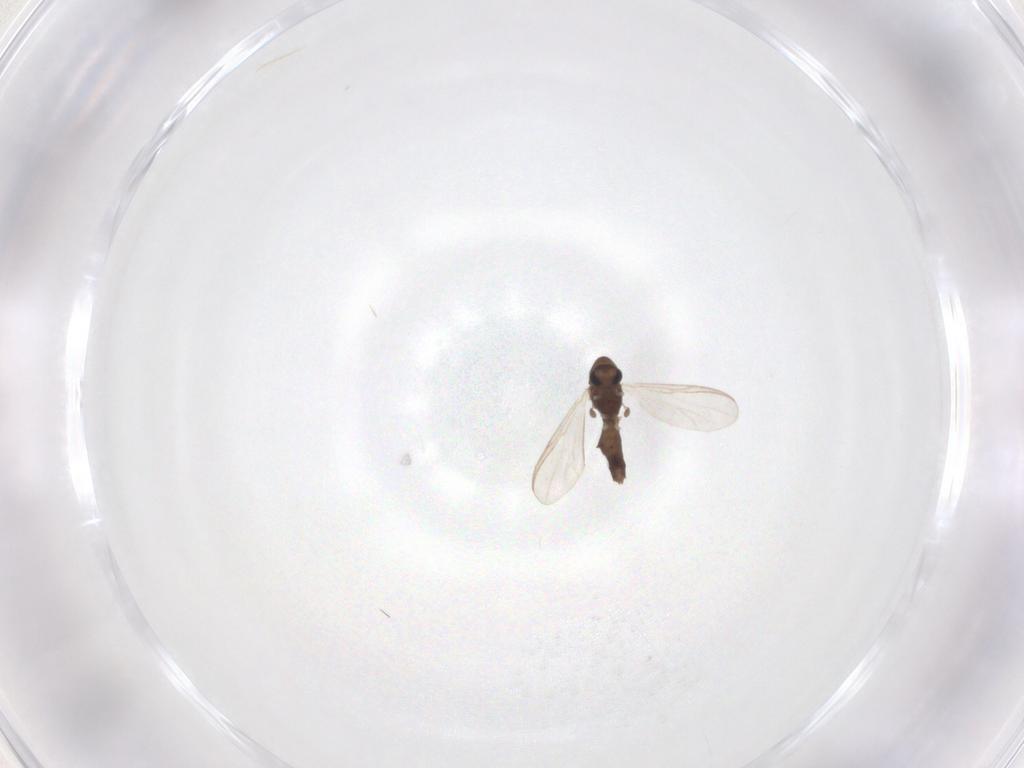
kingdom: Animalia
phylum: Arthropoda
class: Insecta
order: Diptera
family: Chironomidae
